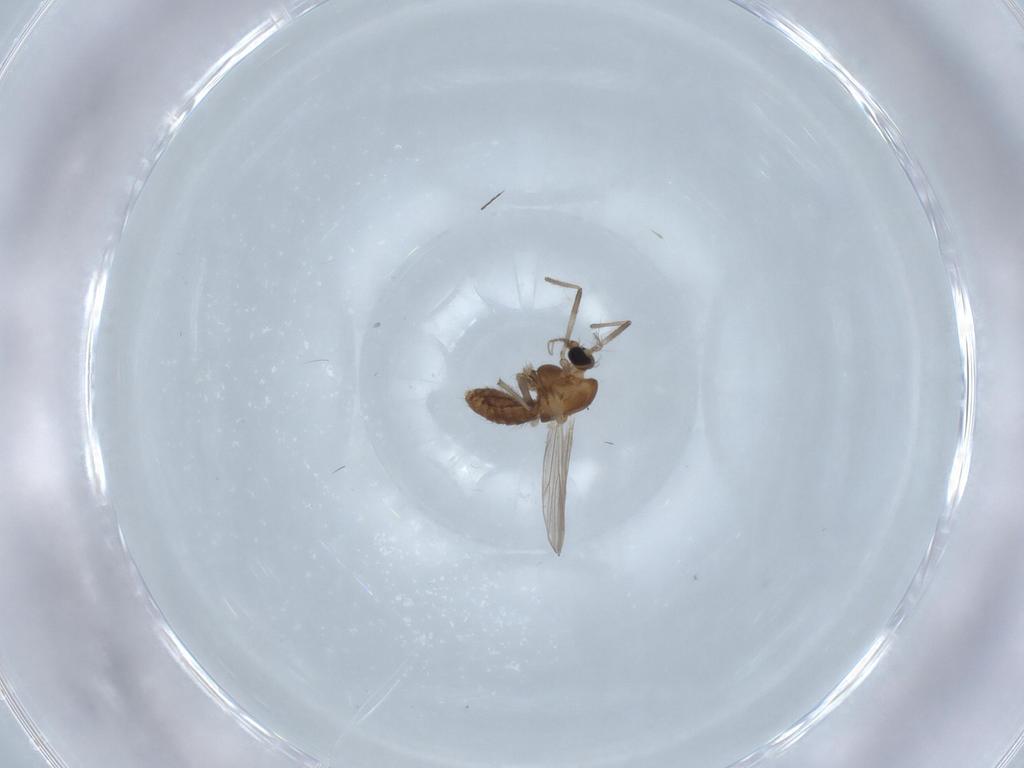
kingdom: Animalia
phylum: Arthropoda
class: Insecta
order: Diptera
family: Chironomidae
